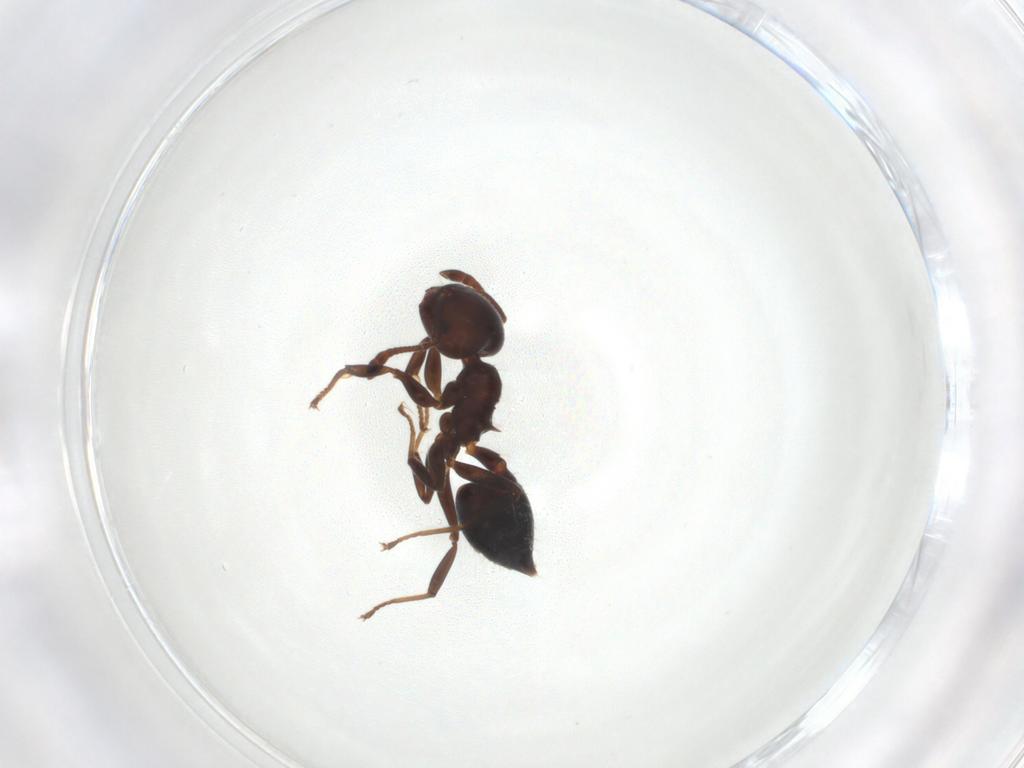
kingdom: Animalia
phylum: Arthropoda
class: Insecta
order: Hymenoptera
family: Formicidae
